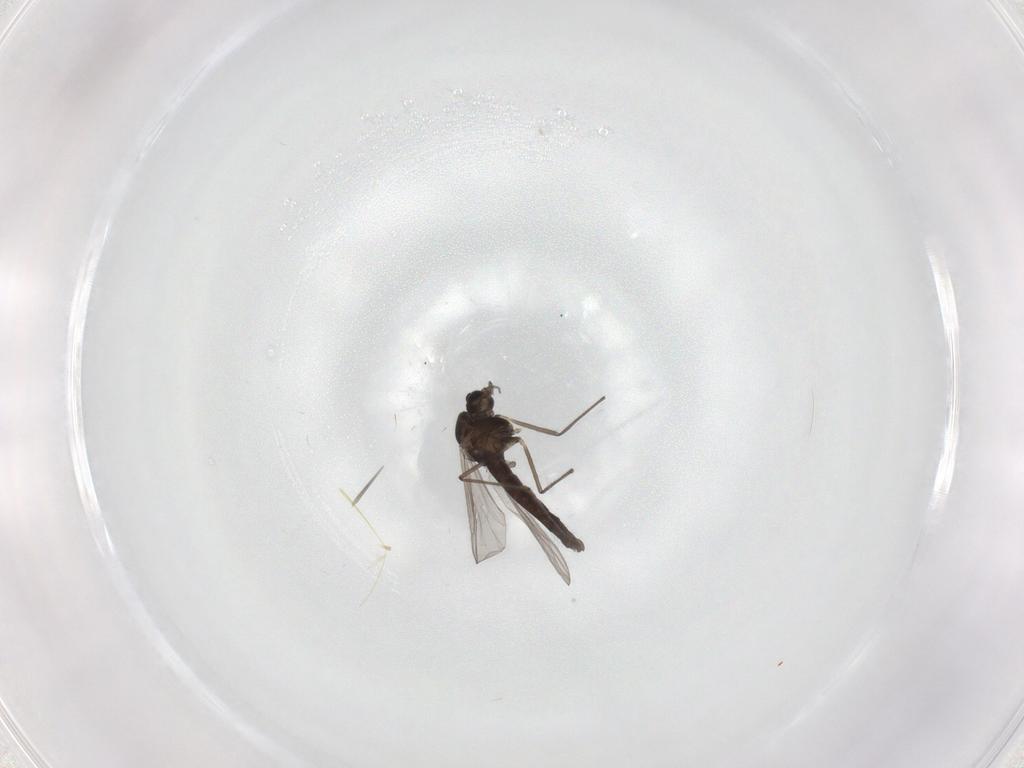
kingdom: Animalia
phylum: Arthropoda
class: Insecta
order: Diptera
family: Chironomidae
